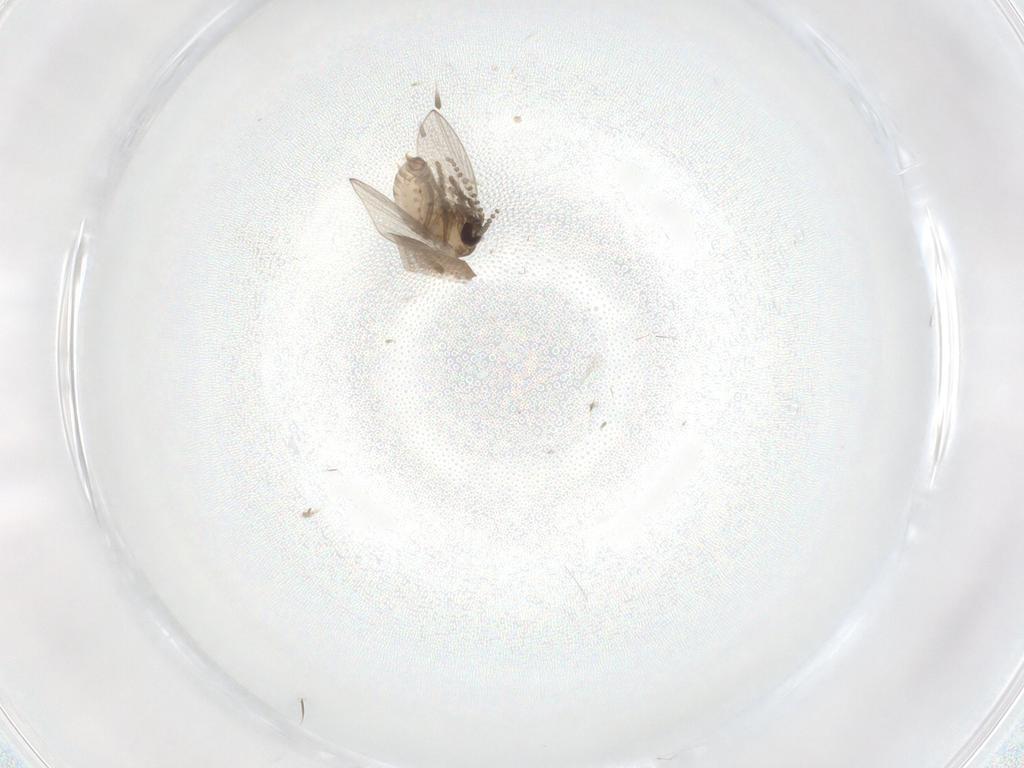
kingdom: Animalia
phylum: Arthropoda
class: Insecta
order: Diptera
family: Psychodidae
